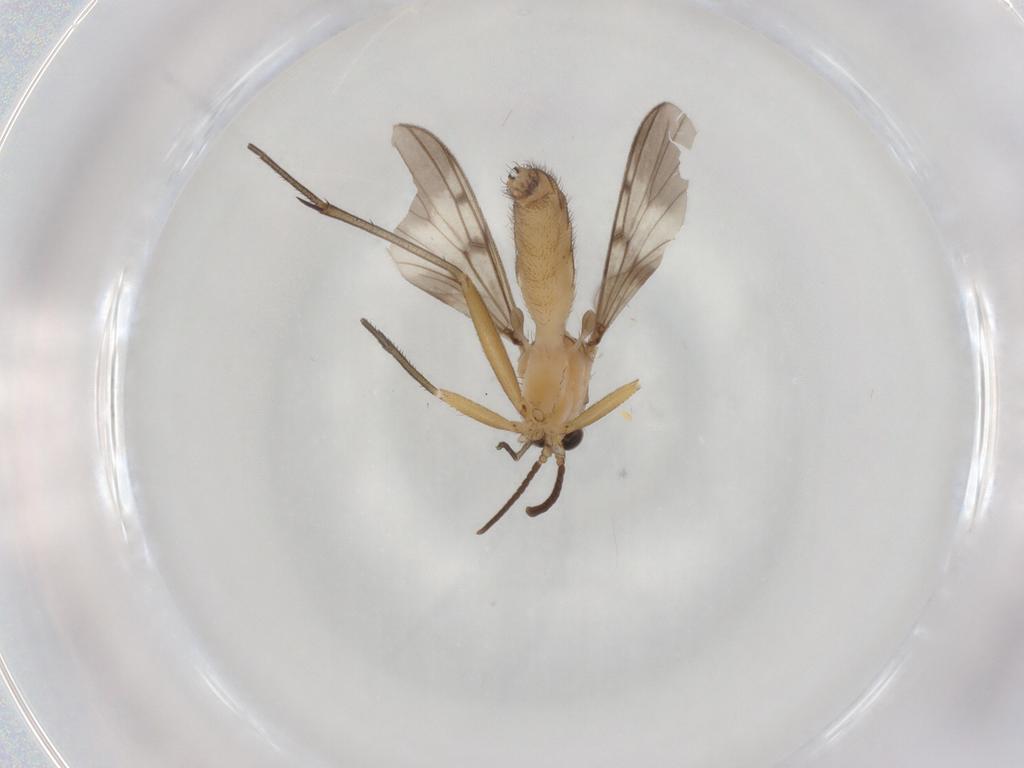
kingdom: Animalia
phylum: Arthropoda
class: Insecta
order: Diptera
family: Mycetophilidae
